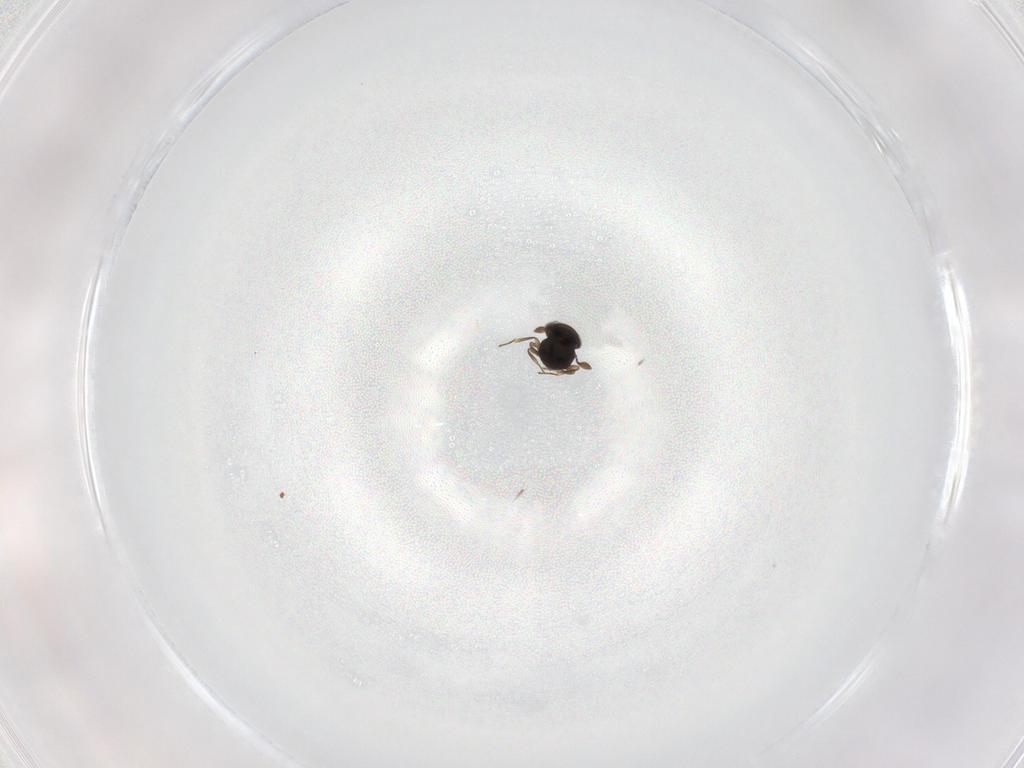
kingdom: Animalia
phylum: Arthropoda
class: Insecta
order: Hymenoptera
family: Scelionidae
